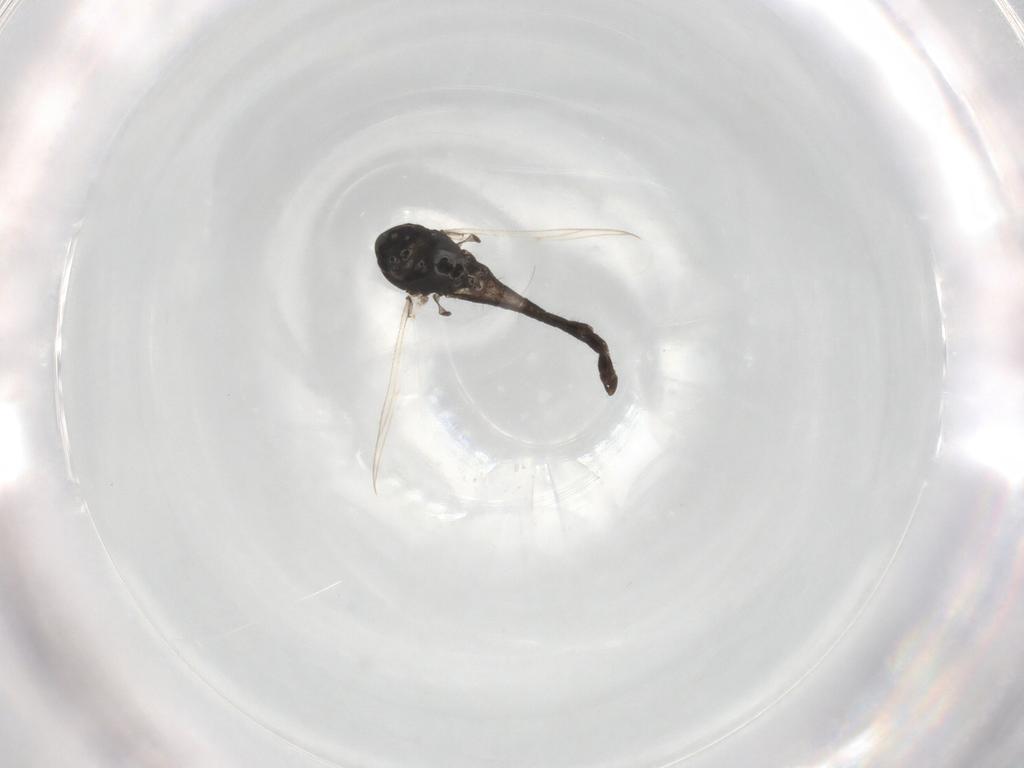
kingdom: Animalia
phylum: Arthropoda
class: Insecta
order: Diptera
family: Chironomidae
